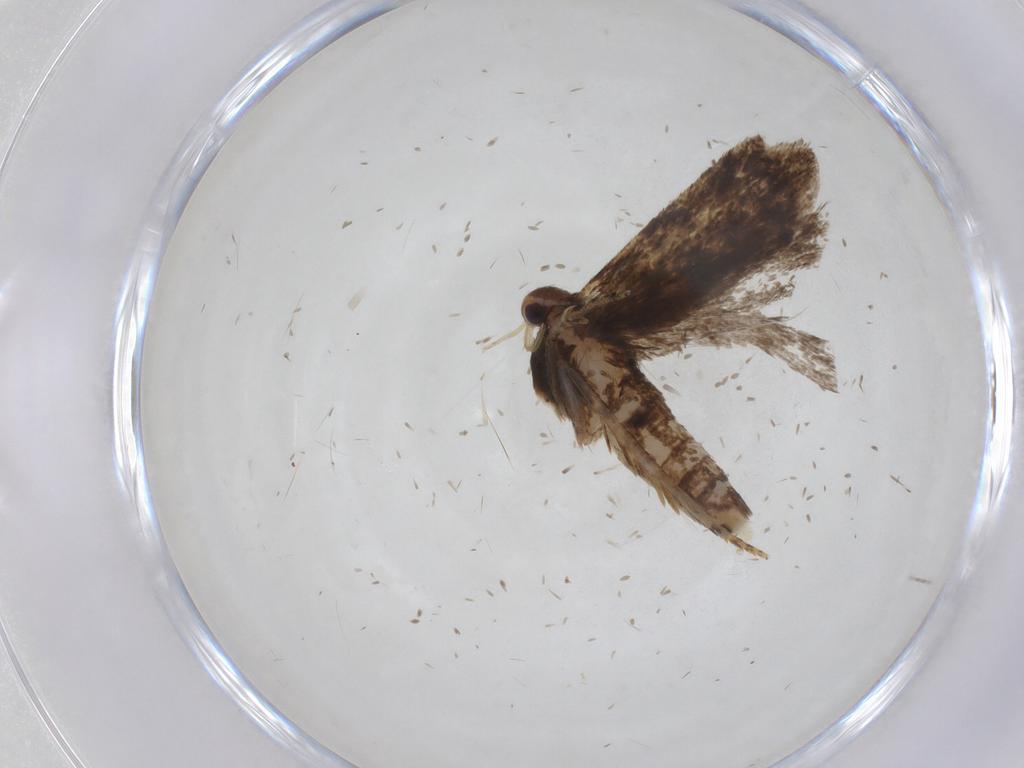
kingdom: Animalia
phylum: Arthropoda
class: Insecta
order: Lepidoptera
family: Gelechiidae
